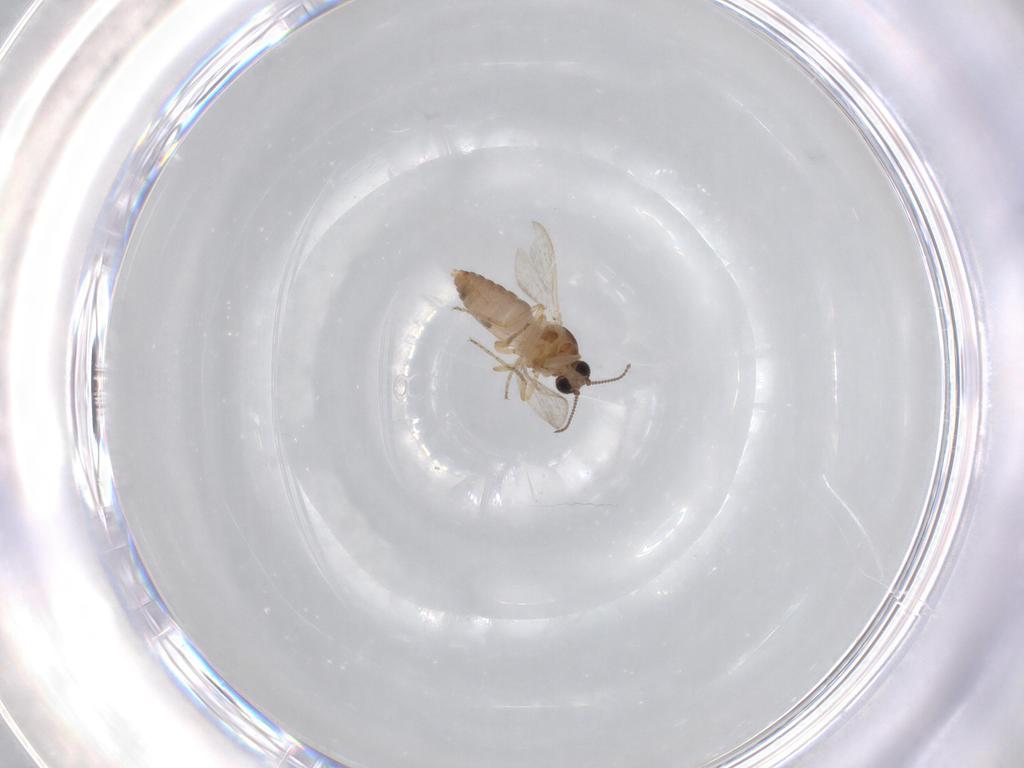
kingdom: Animalia
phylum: Arthropoda
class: Insecta
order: Diptera
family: Ceratopogonidae
